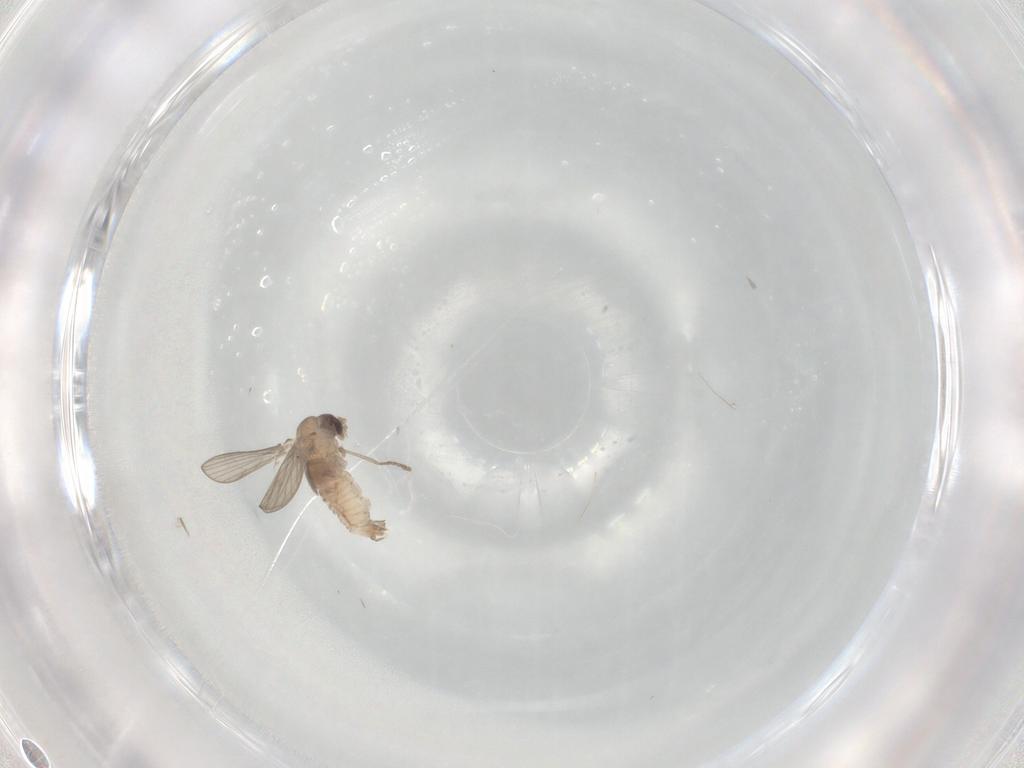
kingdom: Animalia
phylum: Arthropoda
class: Insecta
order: Diptera
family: Psychodidae
